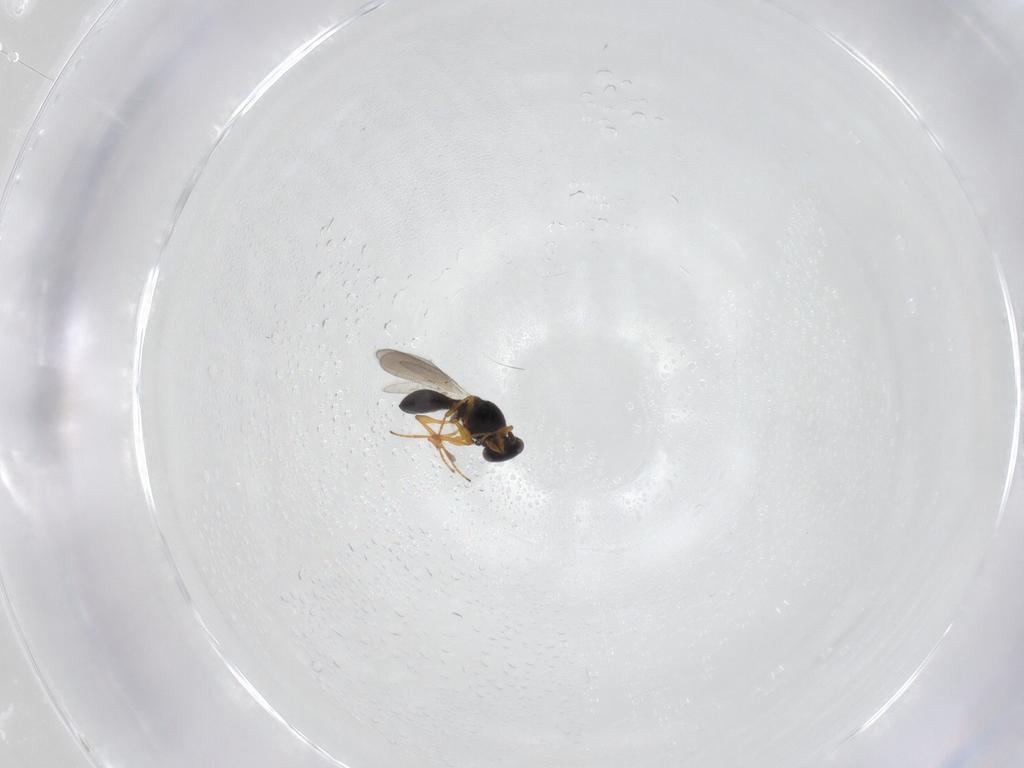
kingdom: Animalia
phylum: Arthropoda
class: Insecta
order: Hymenoptera
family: Platygastridae
